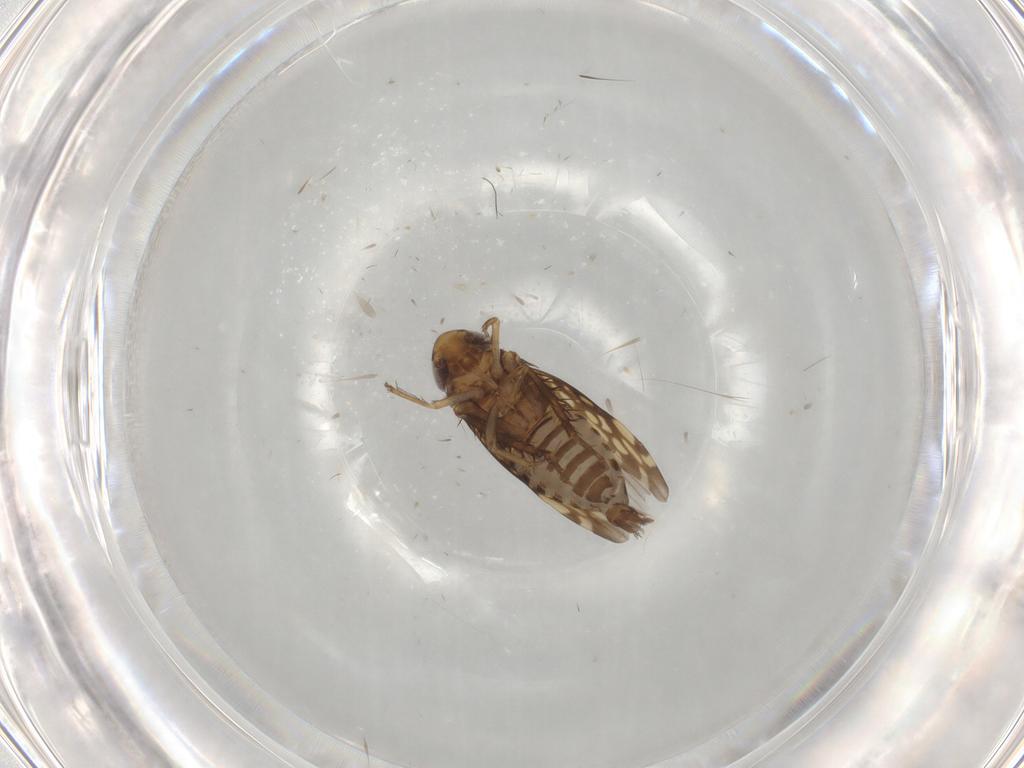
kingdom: Animalia
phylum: Arthropoda
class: Insecta
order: Hemiptera
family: Cicadellidae
